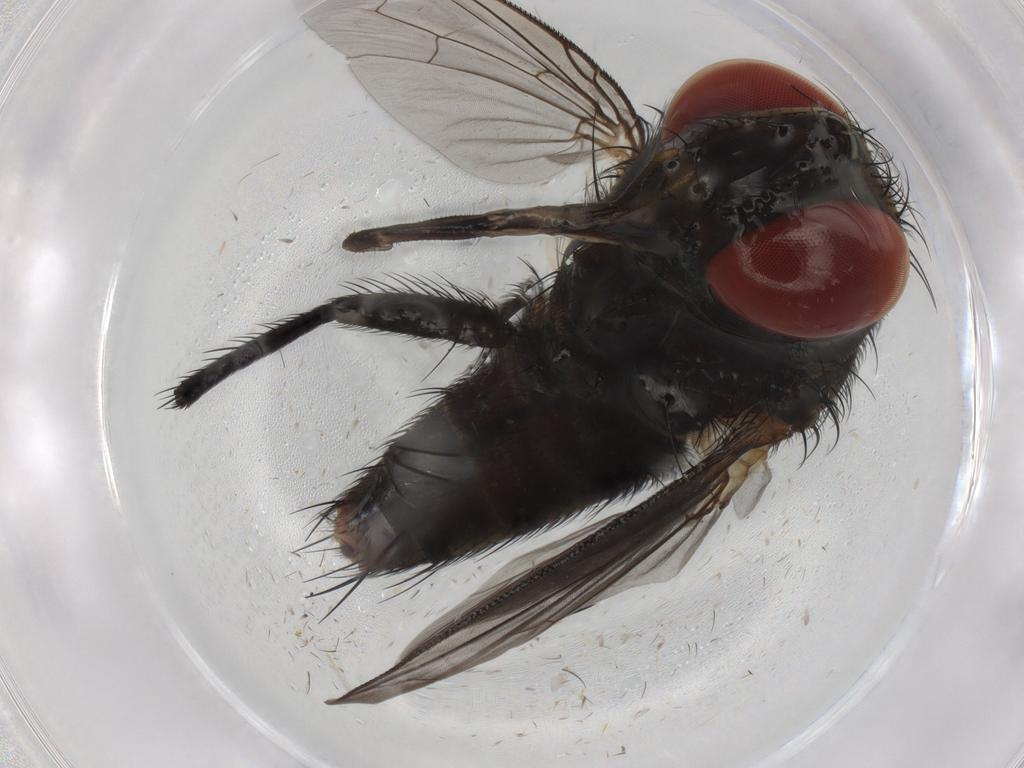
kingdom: Animalia
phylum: Arthropoda
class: Insecta
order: Diptera
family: Sarcophagidae
